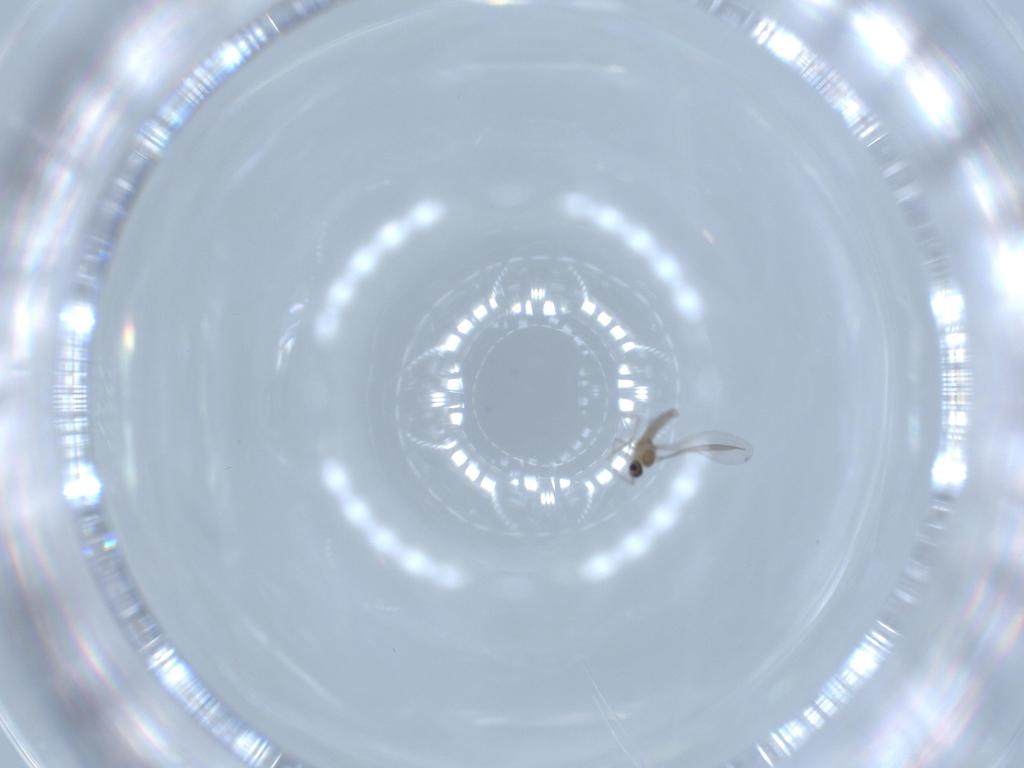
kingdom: Animalia
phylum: Arthropoda
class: Insecta
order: Diptera
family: Cecidomyiidae
